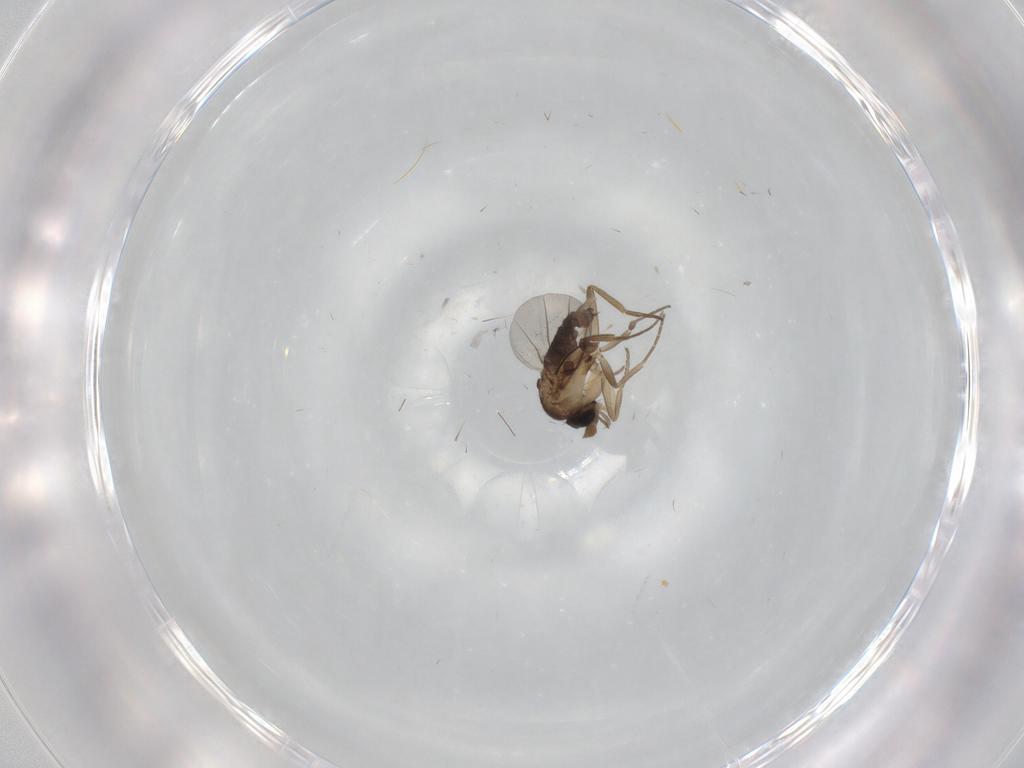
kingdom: Animalia
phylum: Arthropoda
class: Insecta
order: Diptera
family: Phoridae
